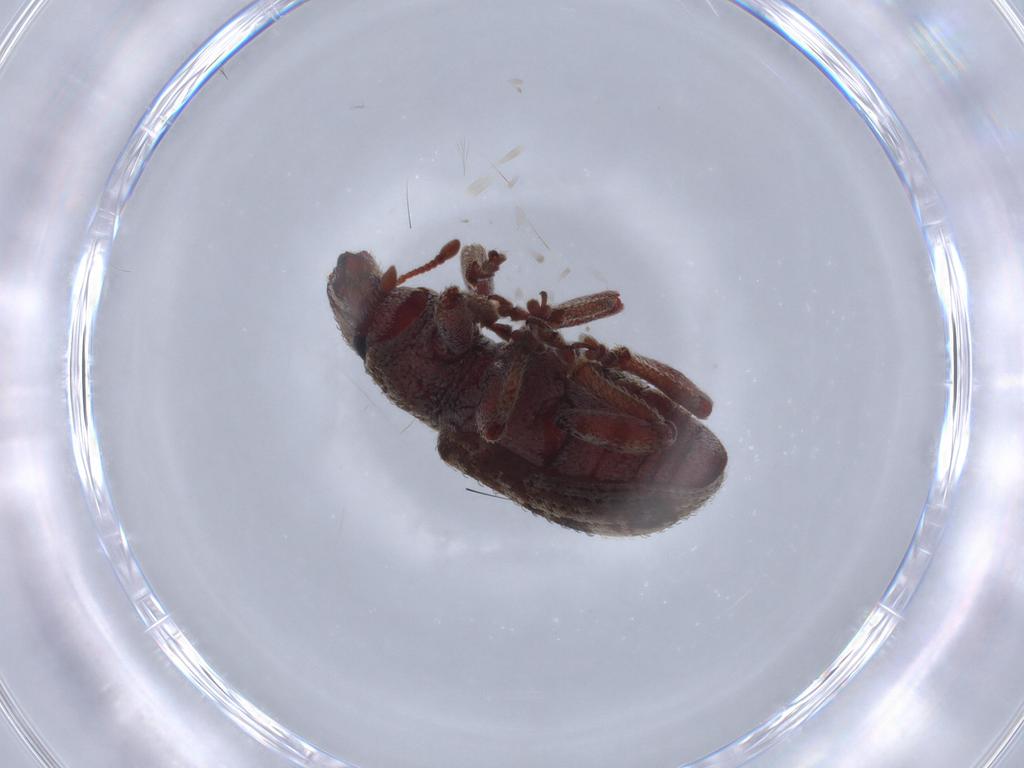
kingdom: Animalia
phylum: Arthropoda
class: Insecta
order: Coleoptera
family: Curculionidae
